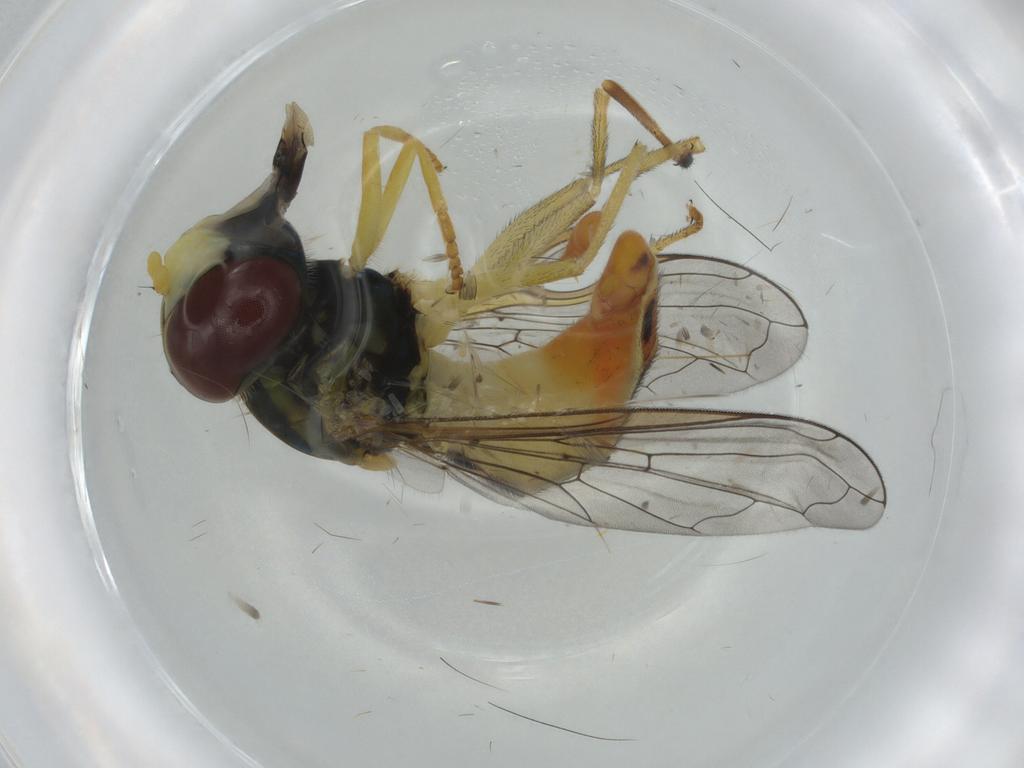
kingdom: Animalia
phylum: Arthropoda
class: Insecta
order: Diptera
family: Syrphidae
